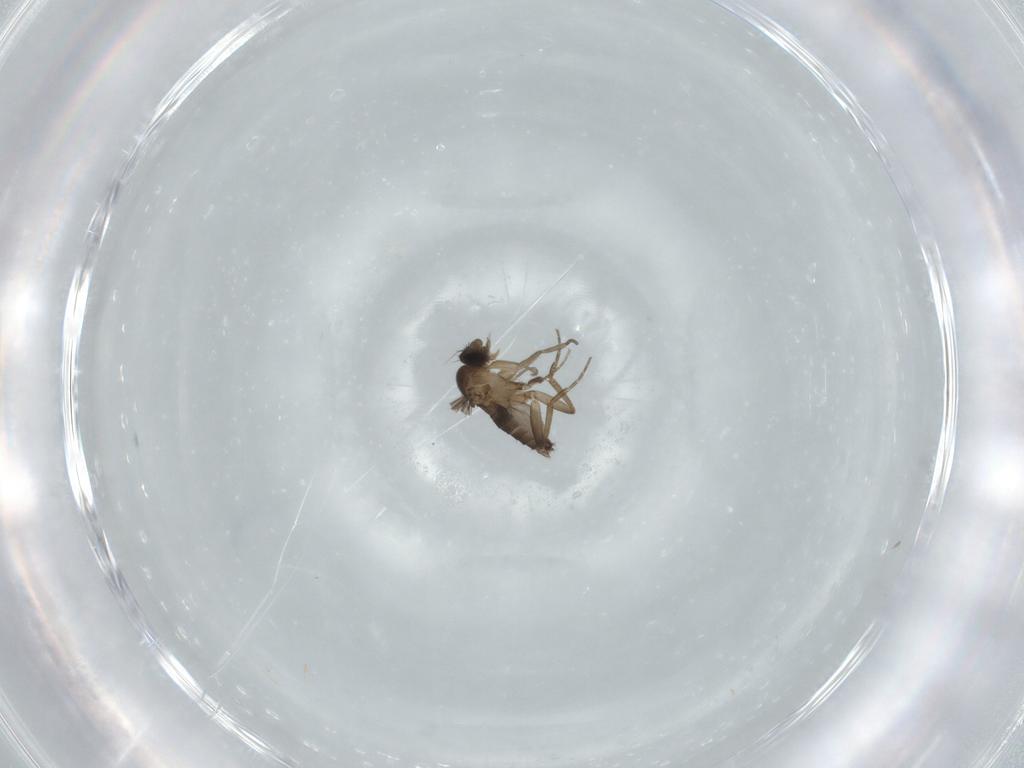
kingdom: Animalia
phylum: Arthropoda
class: Insecta
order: Diptera
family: Phoridae
